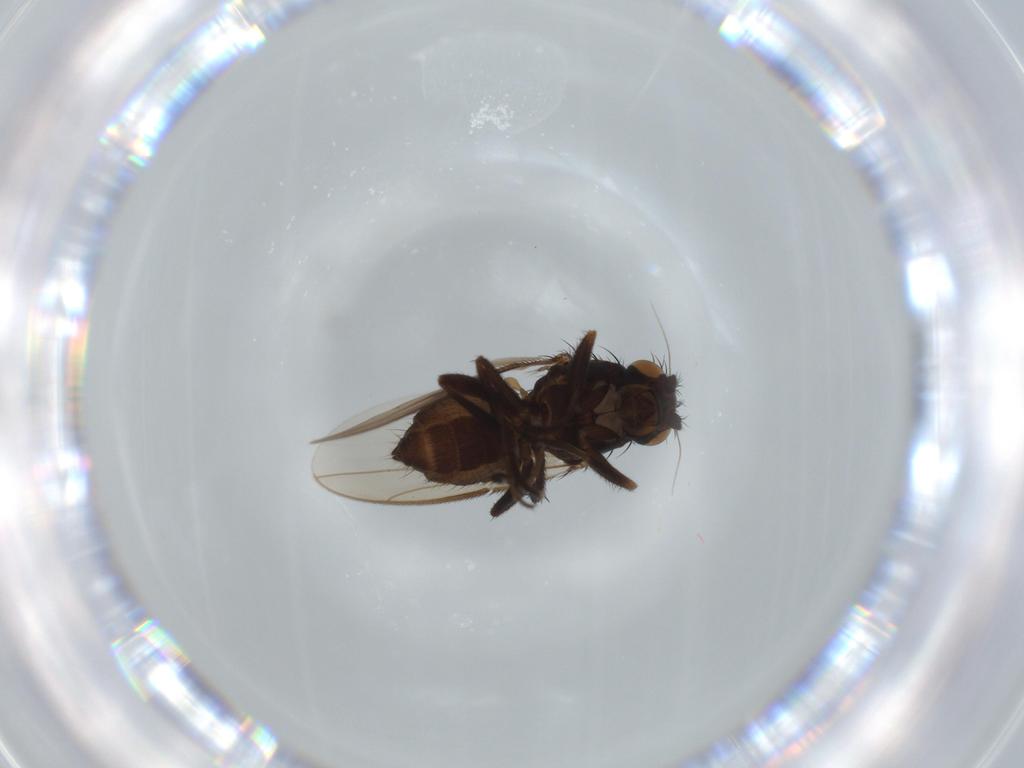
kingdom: Animalia
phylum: Arthropoda
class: Insecta
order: Diptera
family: Sphaeroceridae
